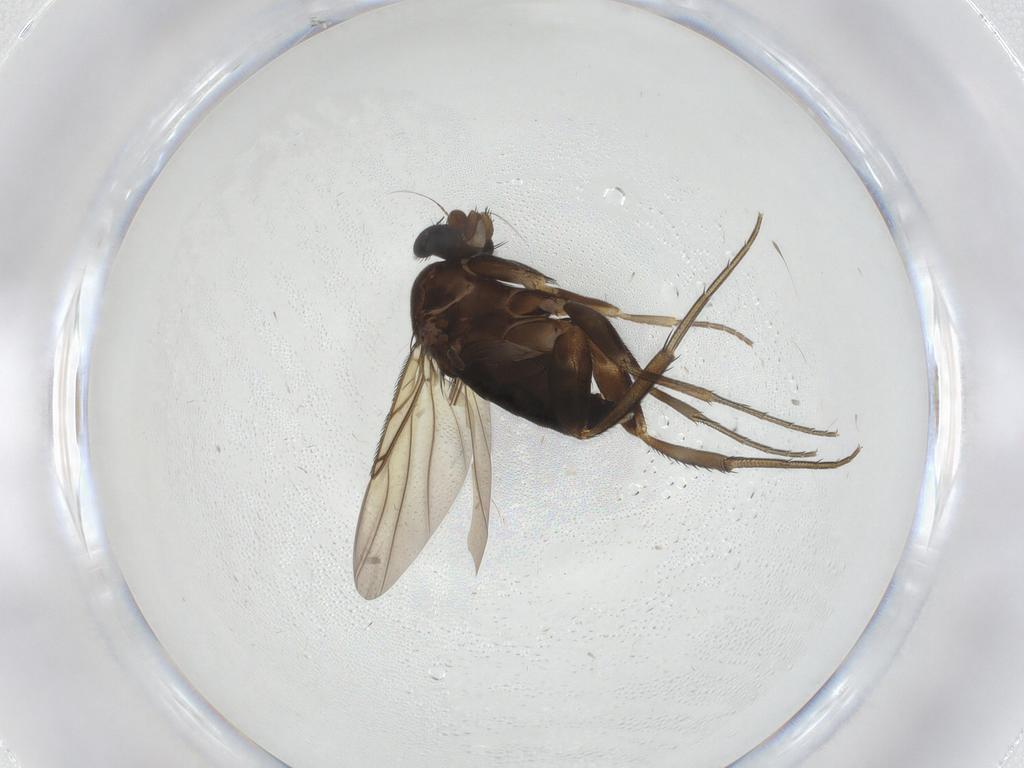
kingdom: Animalia
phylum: Arthropoda
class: Insecta
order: Diptera
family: Phoridae
